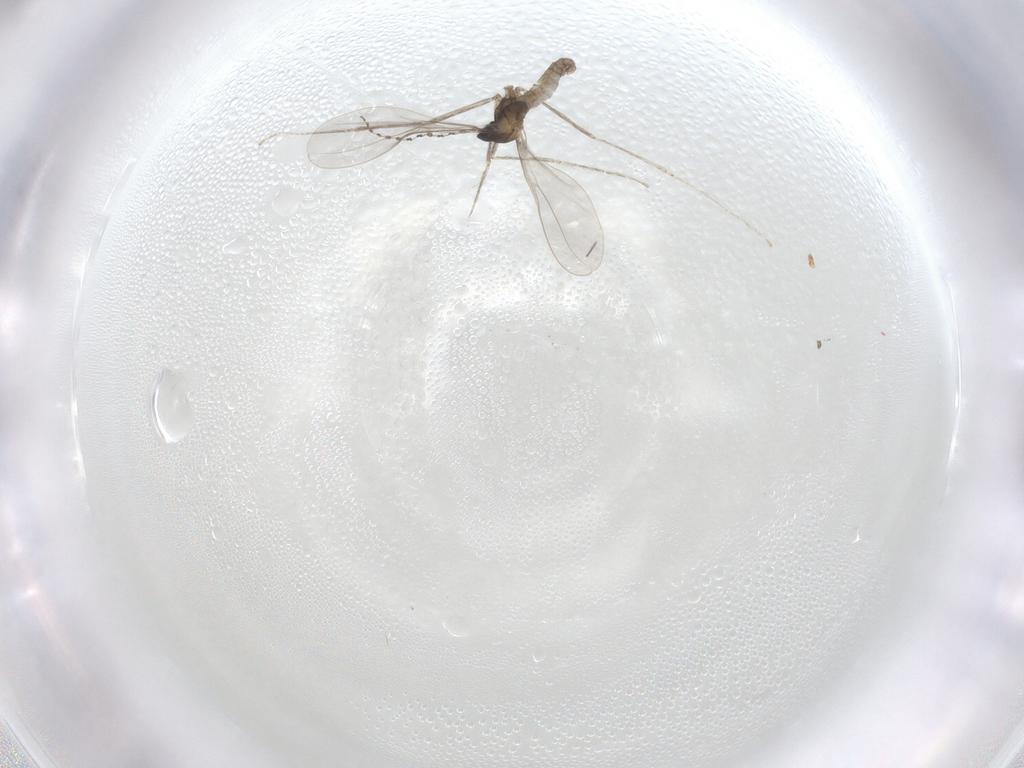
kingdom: Animalia
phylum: Arthropoda
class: Insecta
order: Diptera
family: Cecidomyiidae
